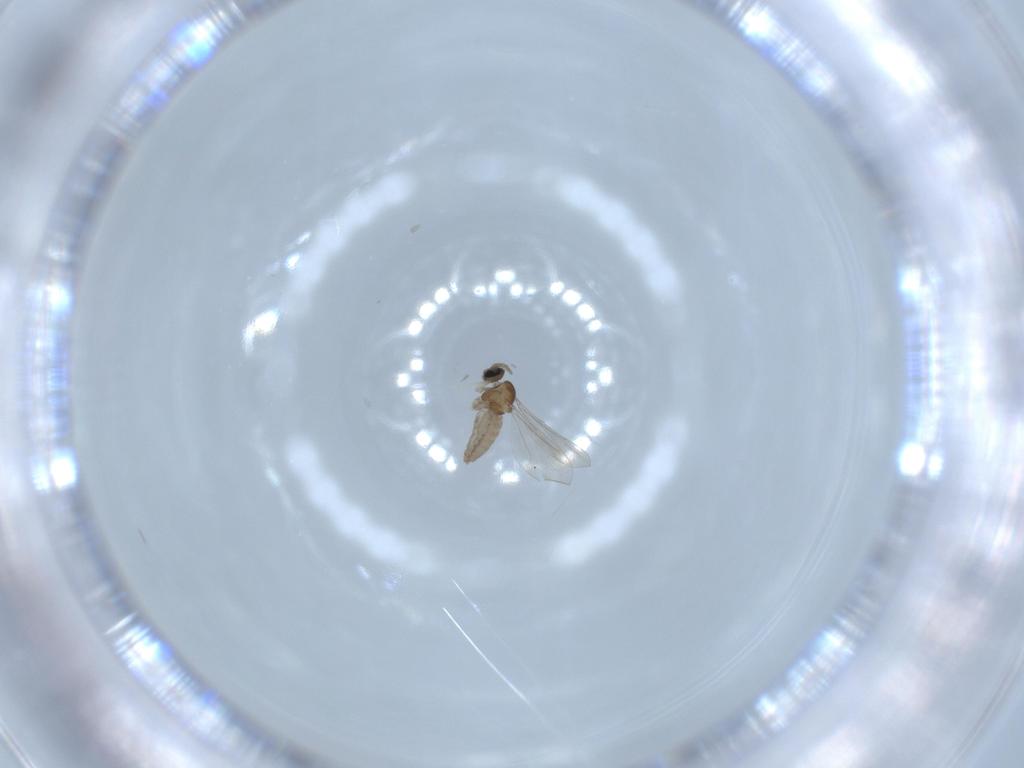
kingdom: Animalia
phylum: Arthropoda
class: Insecta
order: Diptera
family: Cecidomyiidae
